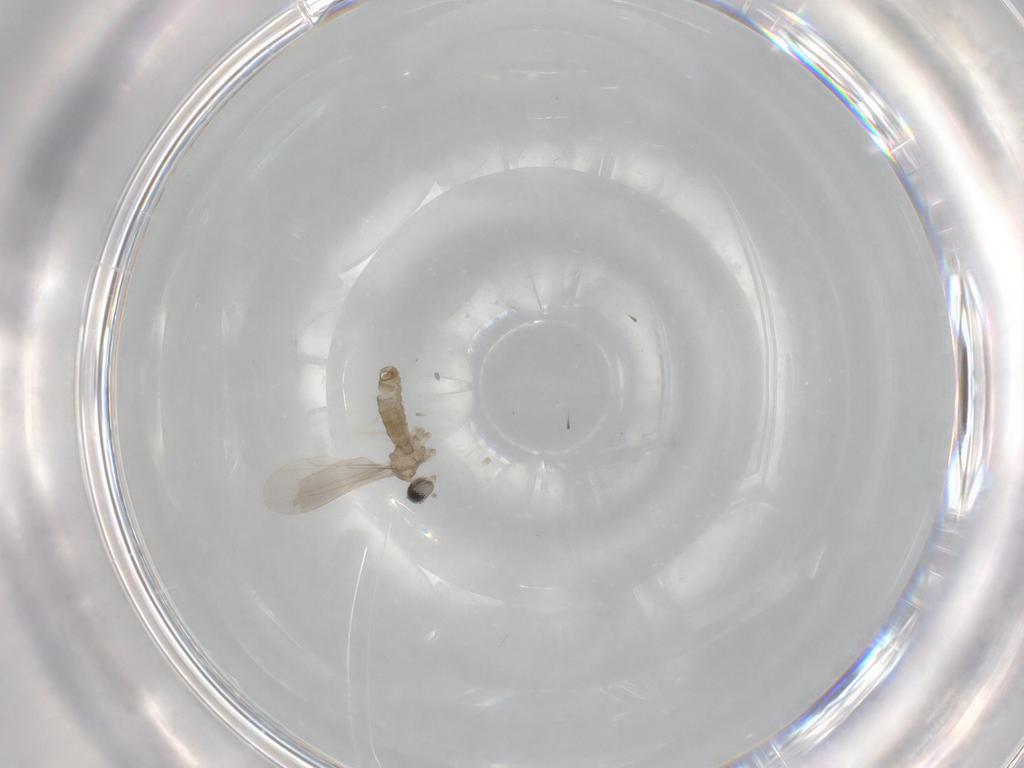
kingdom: Animalia
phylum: Arthropoda
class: Insecta
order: Diptera
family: Cecidomyiidae
